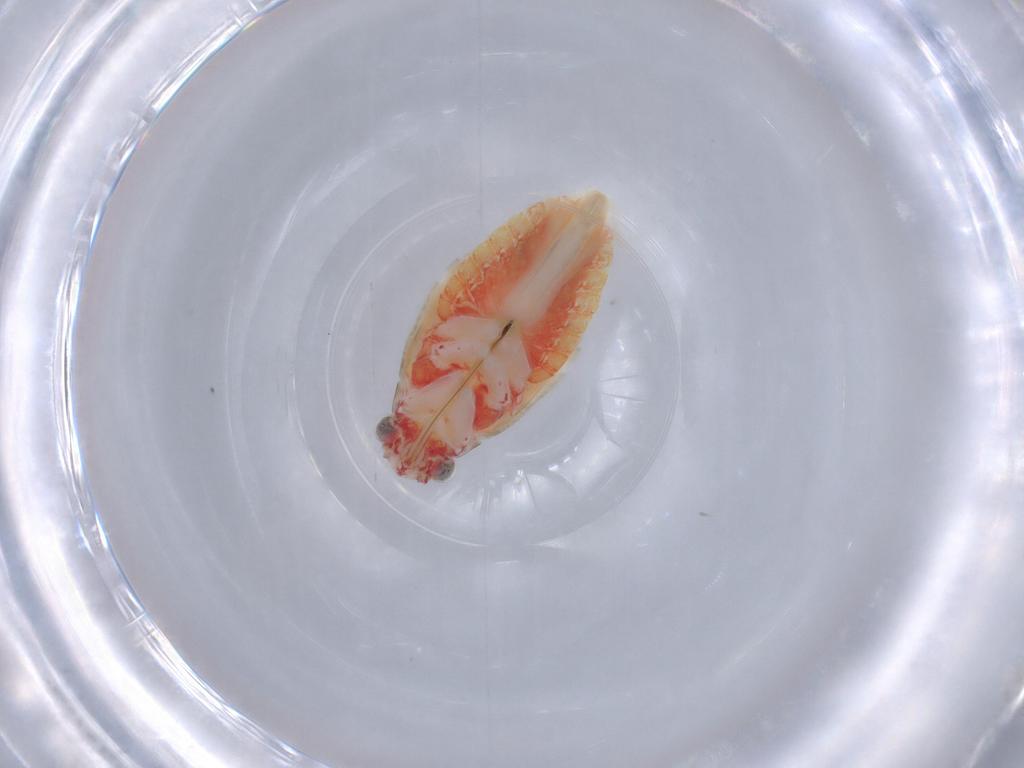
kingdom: Animalia
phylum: Arthropoda
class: Insecta
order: Hemiptera
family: Miridae
